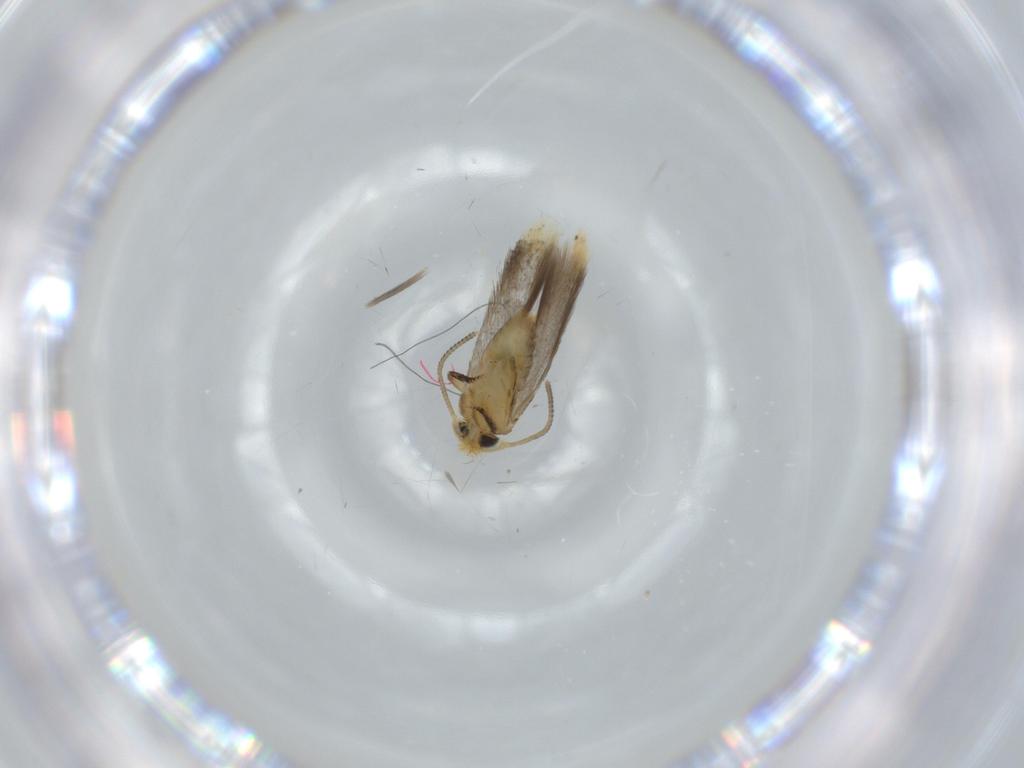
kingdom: Animalia
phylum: Arthropoda
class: Insecta
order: Lepidoptera
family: Nepticulidae
